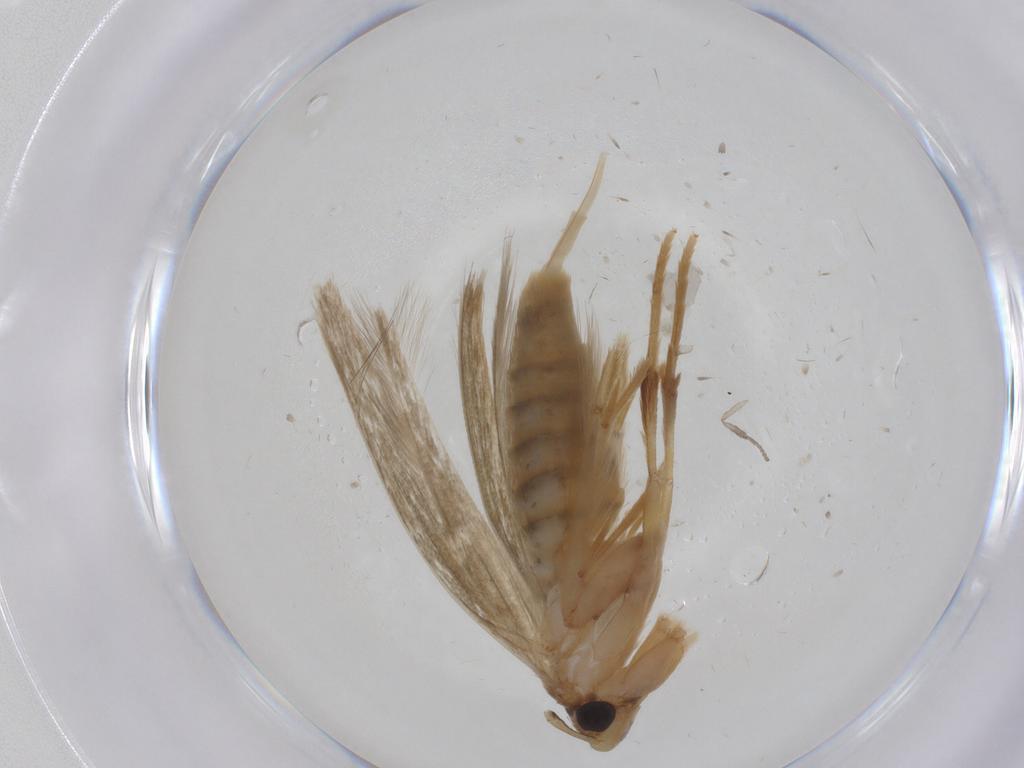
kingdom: Animalia
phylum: Arthropoda
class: Insecta
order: Lepidoptera
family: Tineidae
